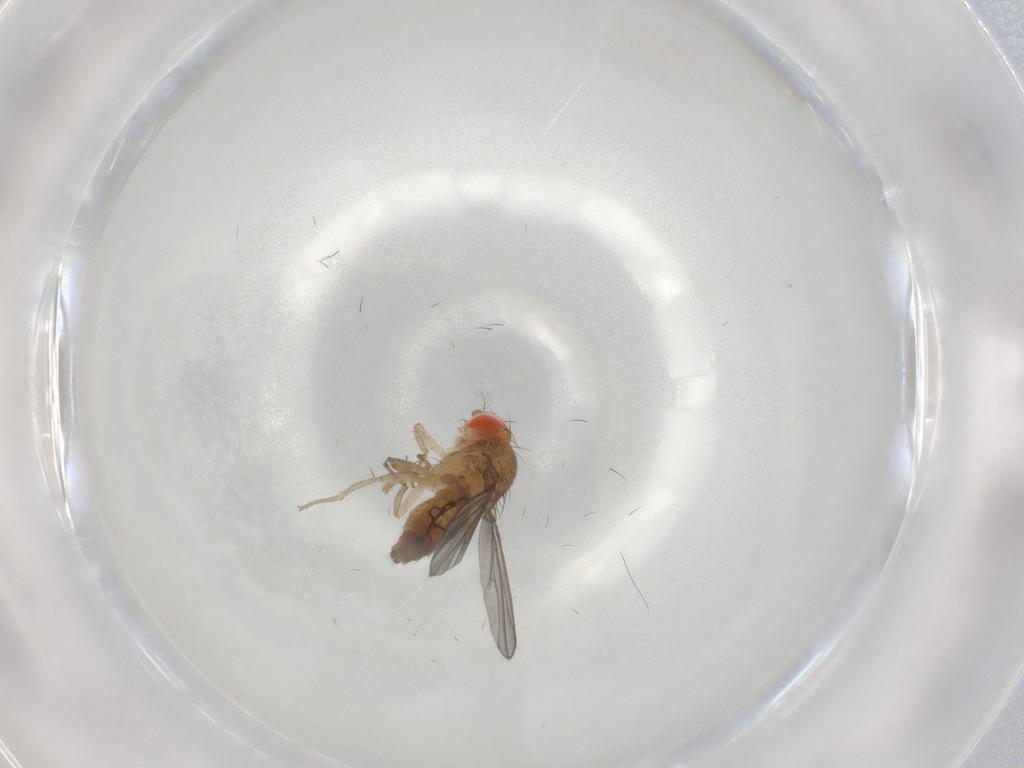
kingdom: Animalia
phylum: Arthropoda
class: Insecta
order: Diptera
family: Drosophilidae
